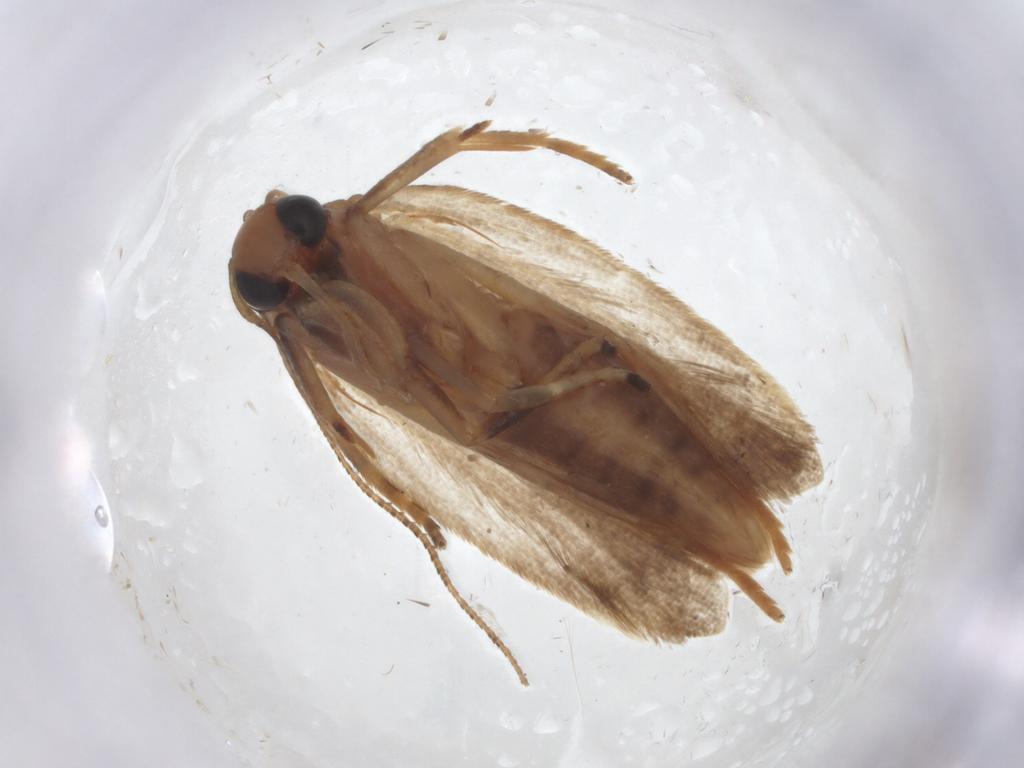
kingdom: Animalia
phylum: Arthropoda
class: Insecta
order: Lepidoptera
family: Gelechiidae
